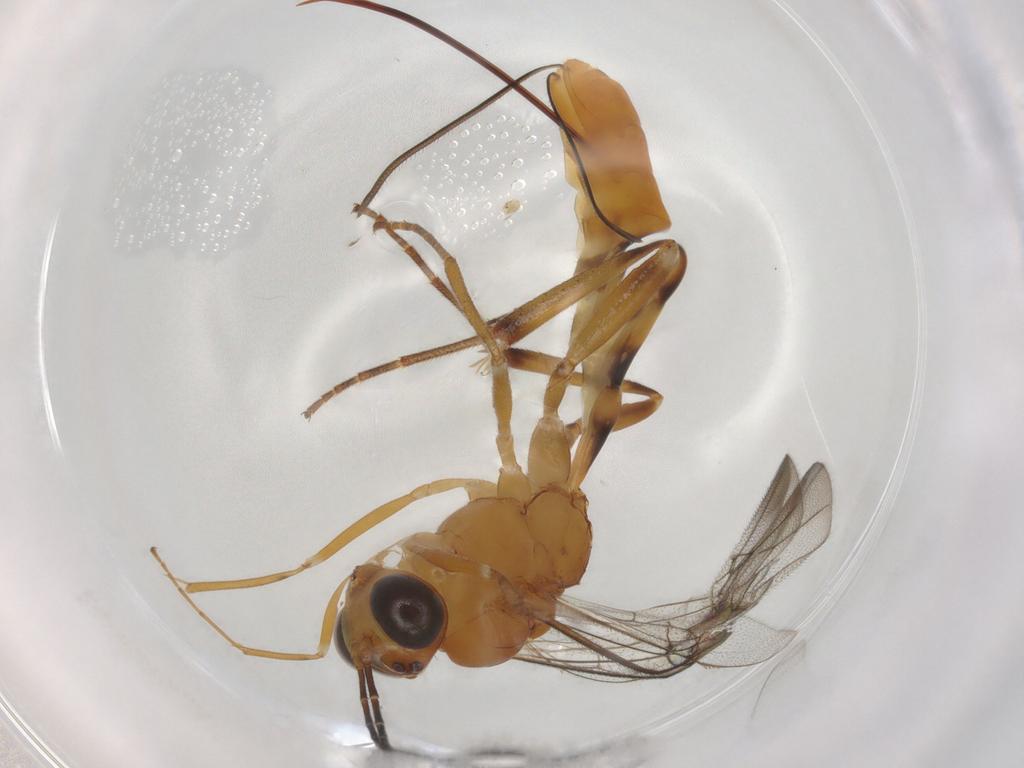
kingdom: Animalia
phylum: Arthropoda
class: Insecta
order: Hymenoptera
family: Ichneumonidae
